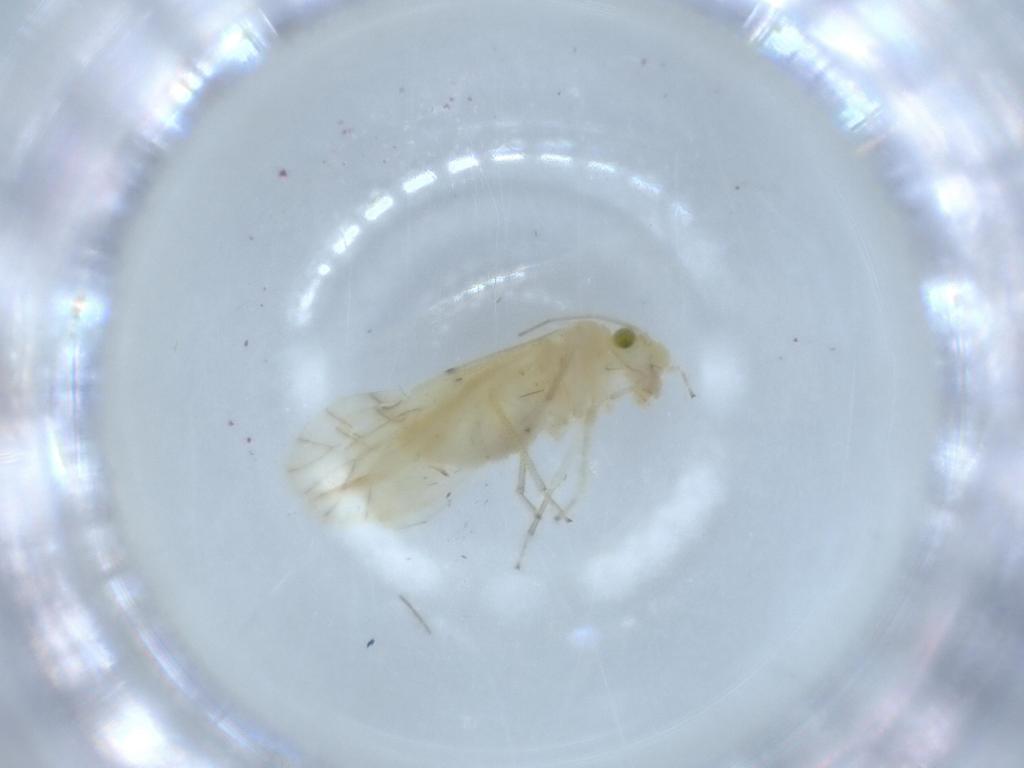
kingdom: Animalia
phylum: Arthropoda
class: Insecta
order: Psocodea
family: Caeciliusidae
